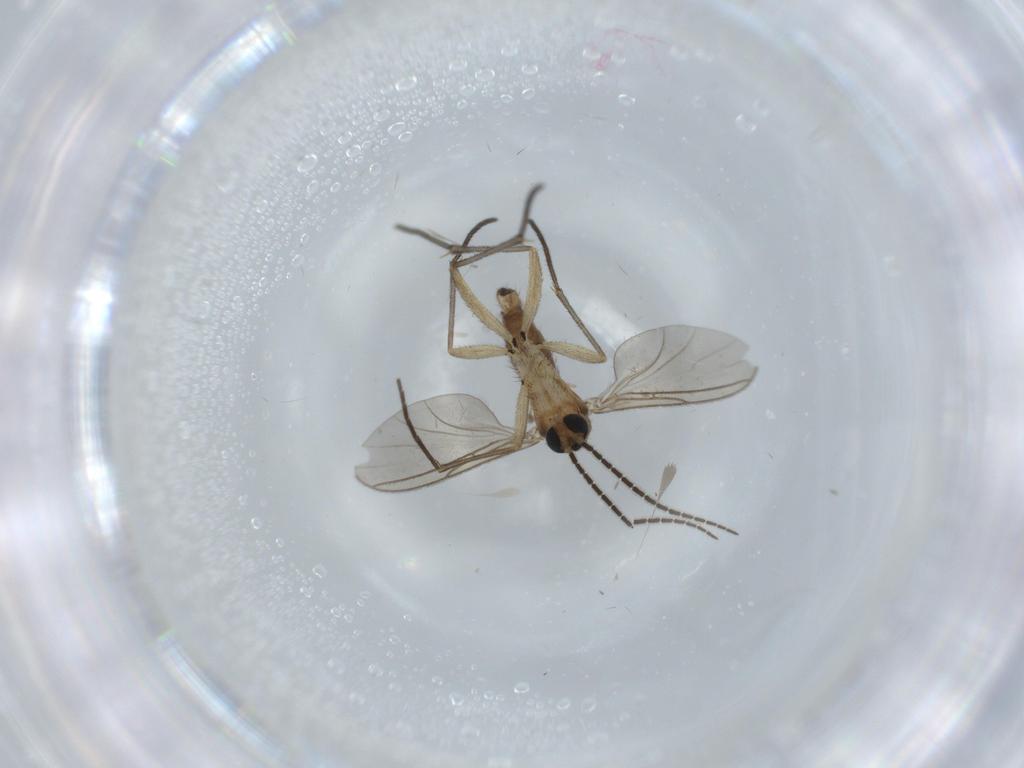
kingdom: Animalia
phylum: Arthropoda
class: Insecta
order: Diptera
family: Sciaridae
